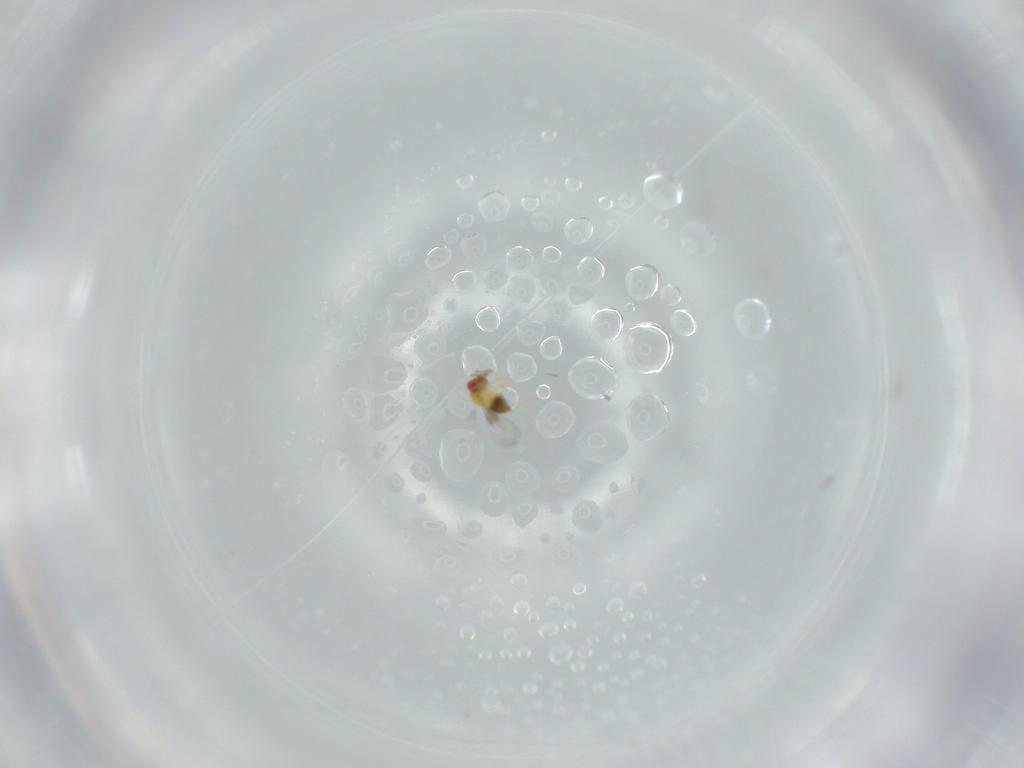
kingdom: Animalia
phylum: Arthropoda
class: Insecta
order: Hymenoptera
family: Trichogrammatidae
